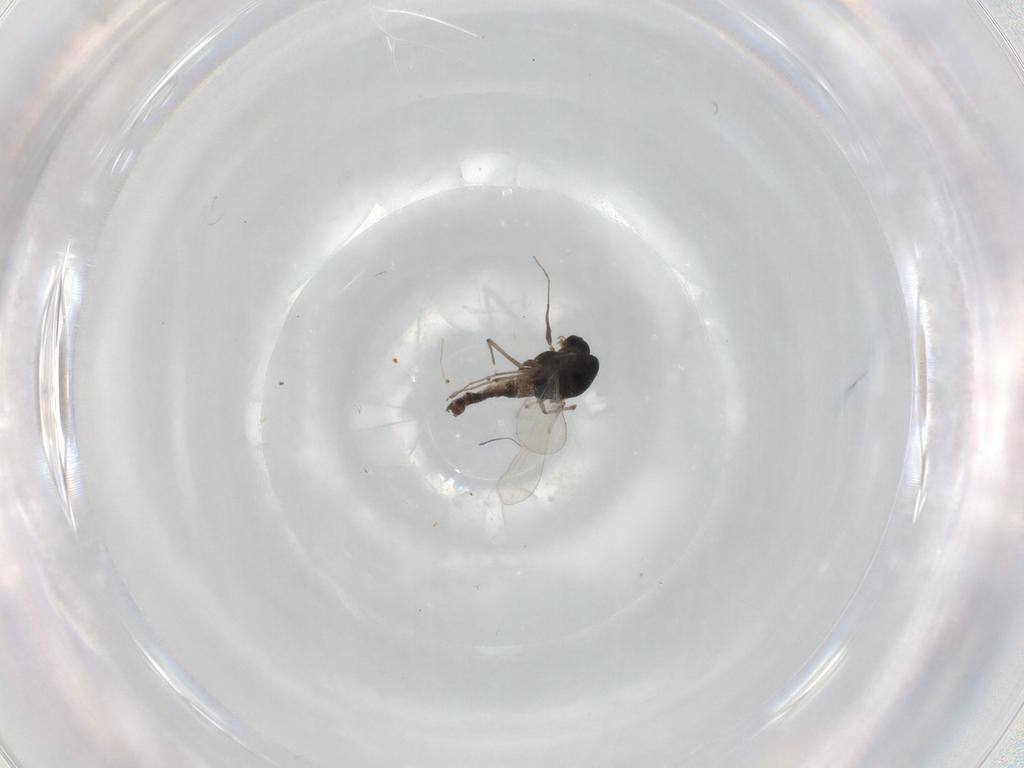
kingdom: Animalia
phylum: Arthropoda
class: Insecta
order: Diptera
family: Chironomidae
